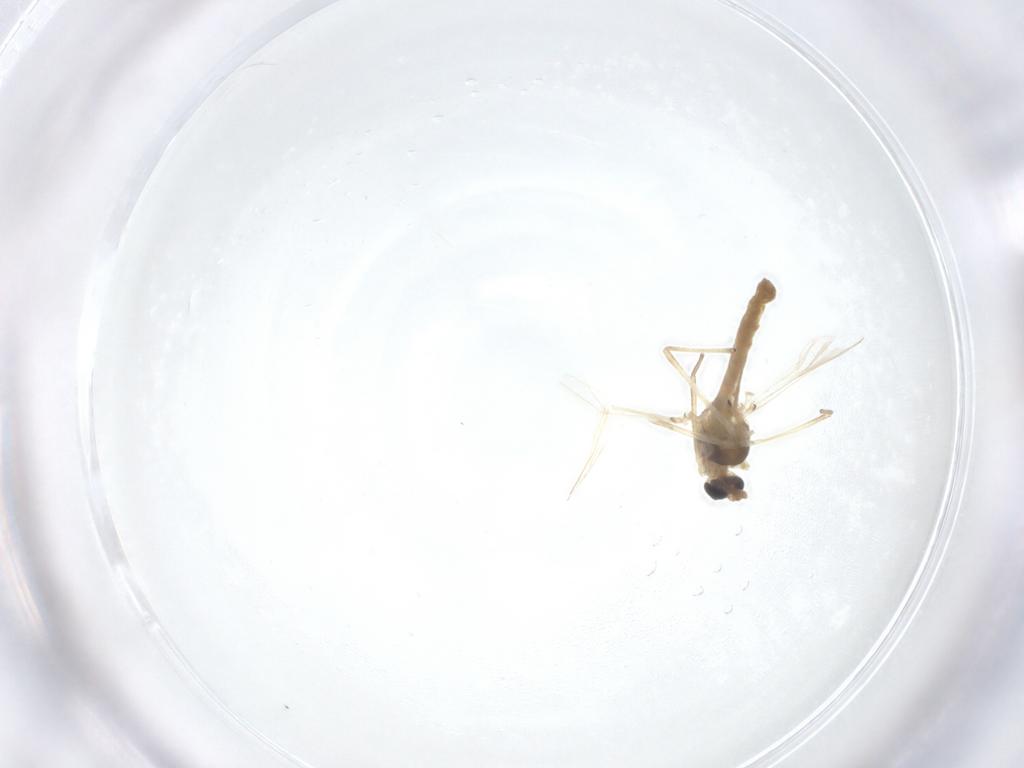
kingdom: Animalia
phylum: Arthropoda
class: Insecta
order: Diptera
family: Chironomidae
